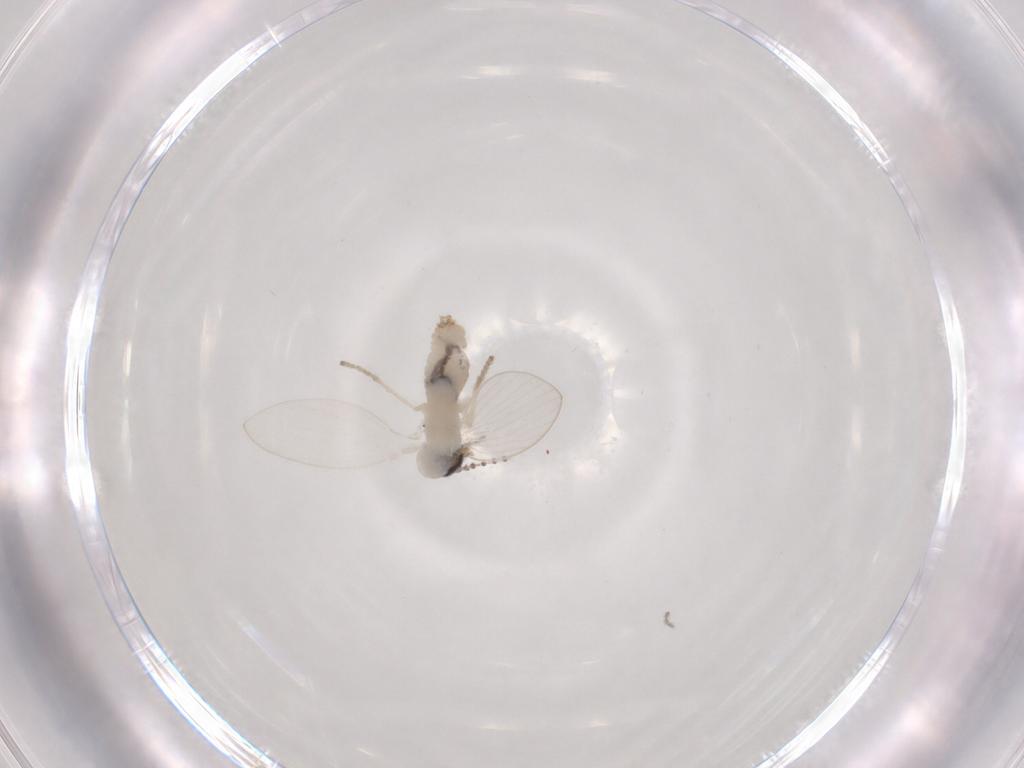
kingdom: Animalia
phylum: Arthropoda
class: Insecta
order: Diptera
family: Psychodidae
